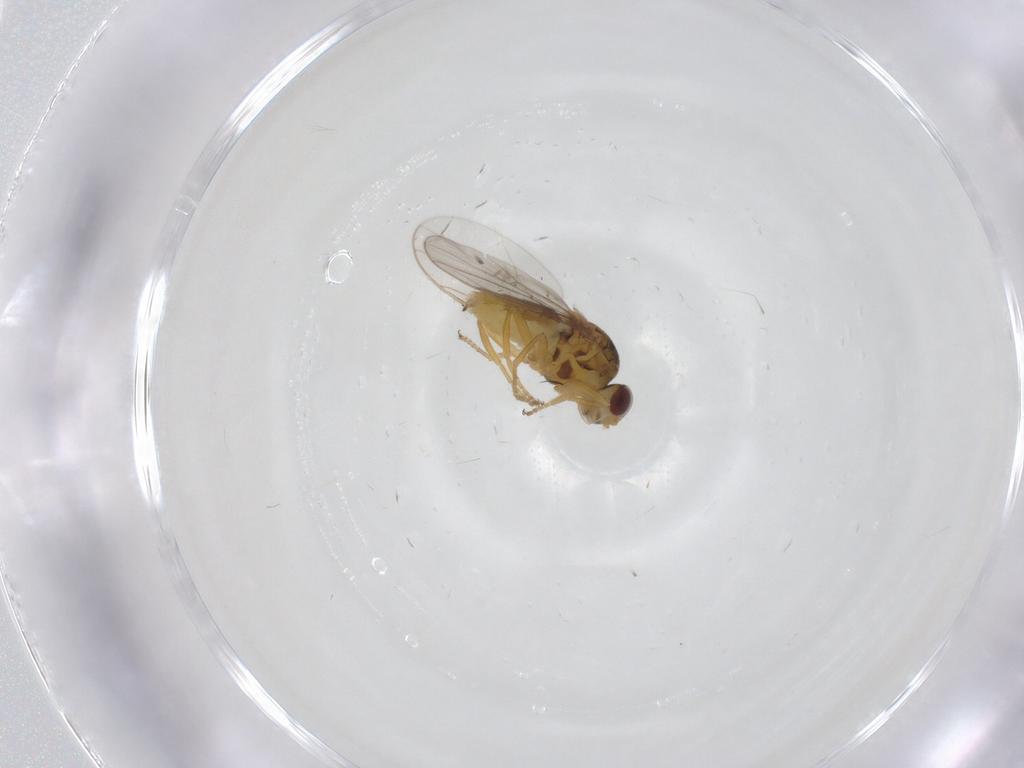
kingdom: Animalia
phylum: Arthropoda
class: Insecta
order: Diptera
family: Chloropidae
